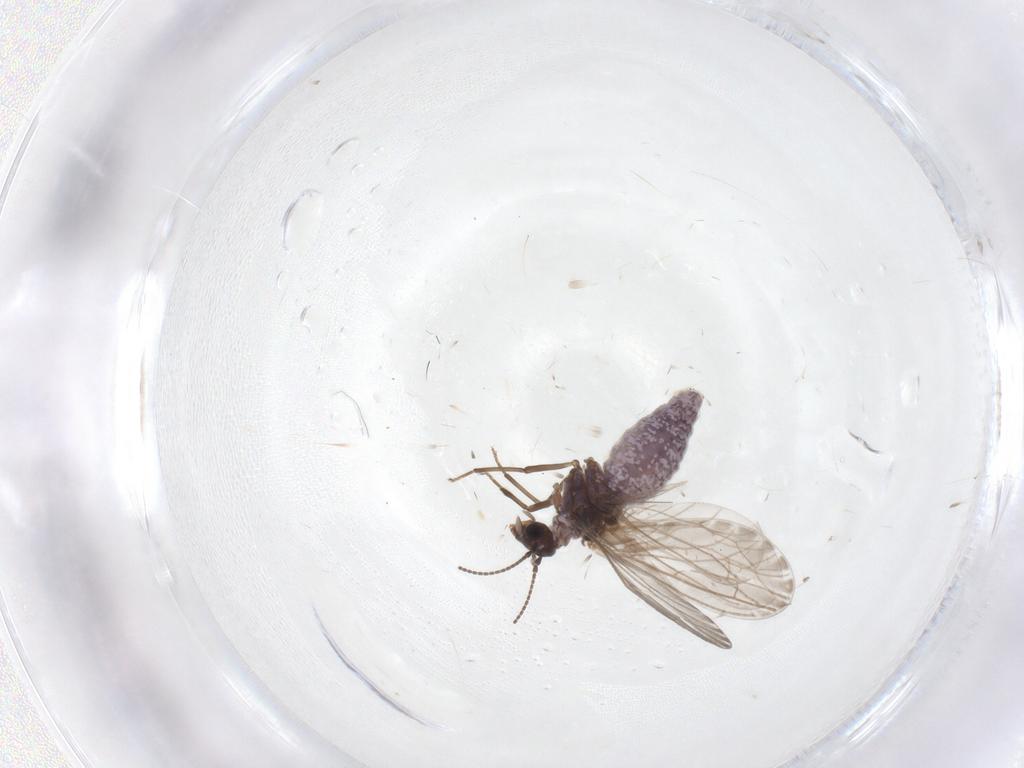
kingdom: Animalia
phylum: Arthropoda
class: Insecta
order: Neuroptera
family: Coniopterygidae
